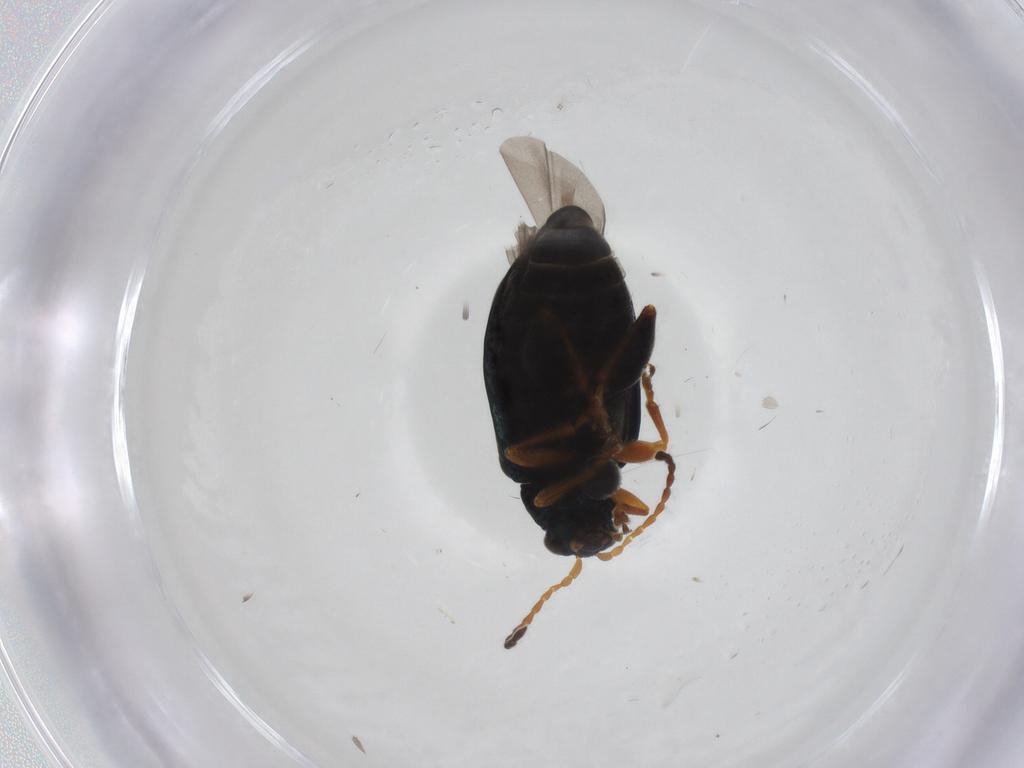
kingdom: Animalia
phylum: Arthropoda
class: Insecta
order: Coleoptera
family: Chrysomelidae
